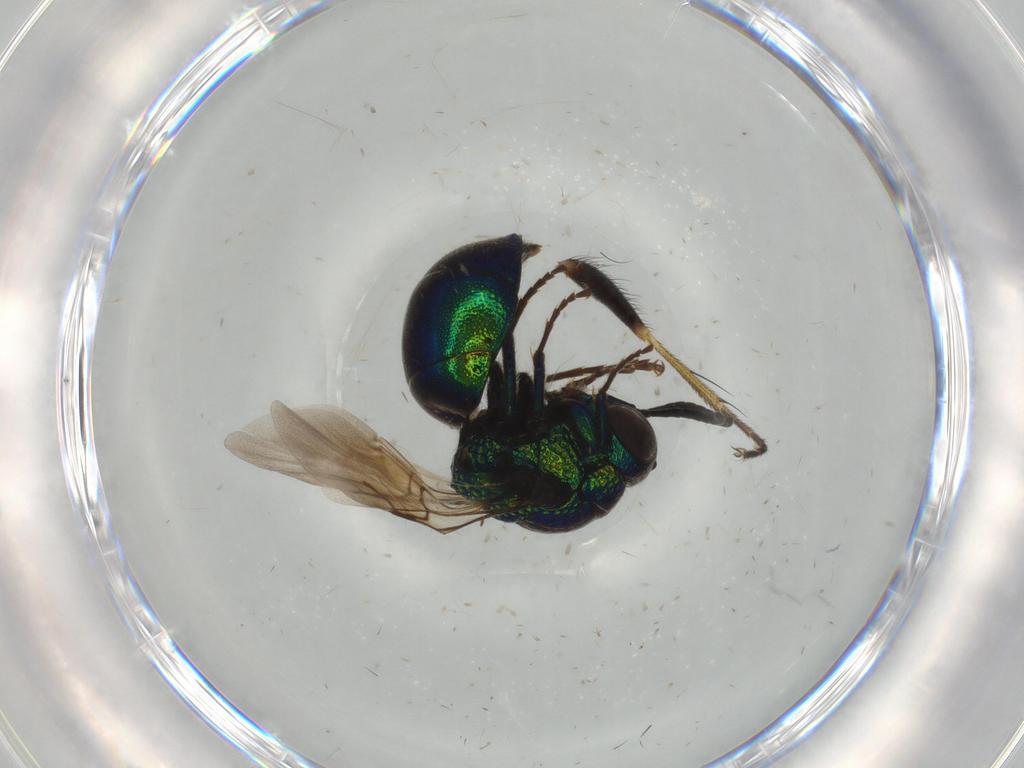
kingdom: Animalia
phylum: Arthropoda
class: Insecta
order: Hymenoptera
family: Chrysididae
